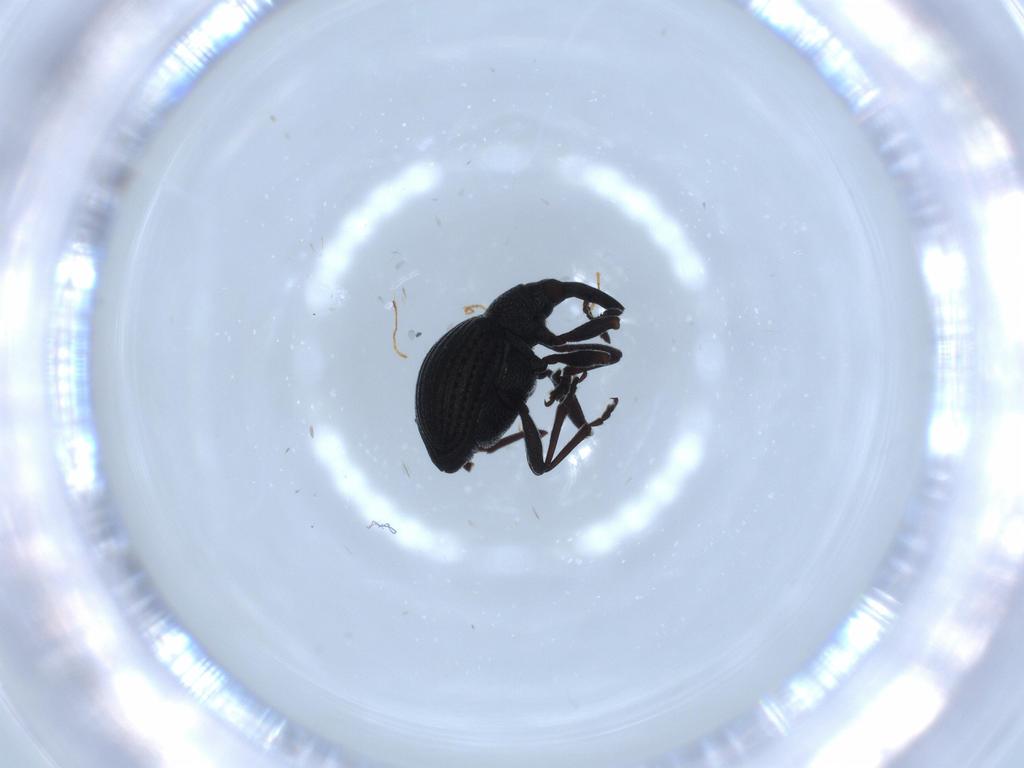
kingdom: Animalia
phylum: Arthropoda
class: Insecta
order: Coleoptera
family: Brentidae
